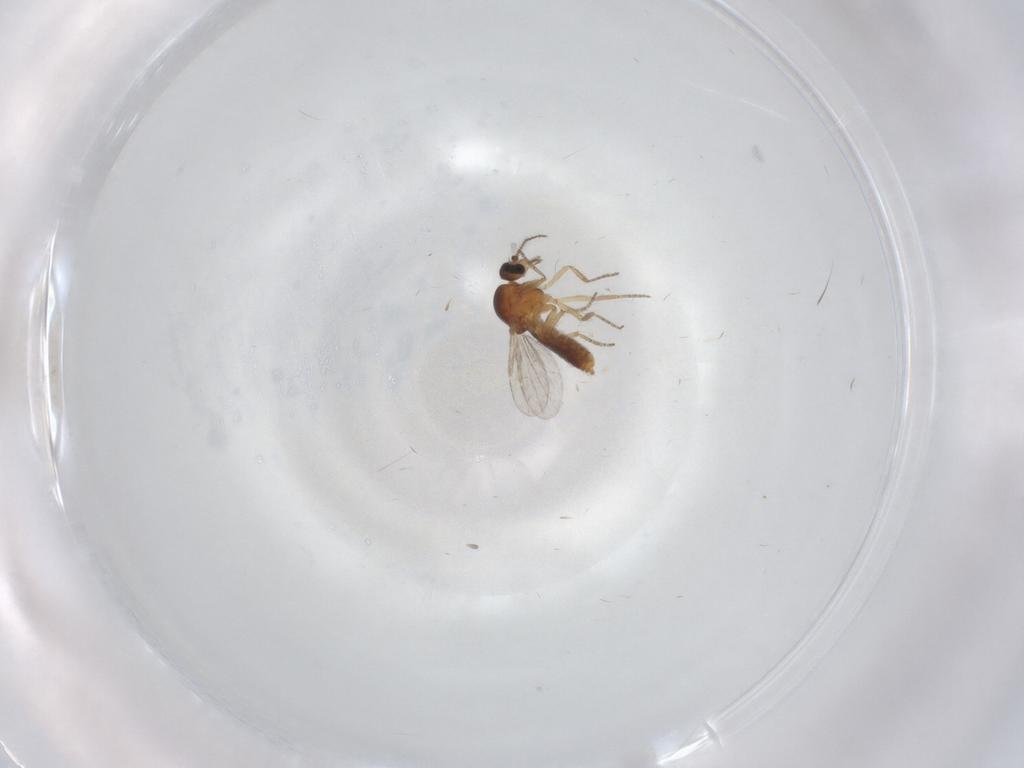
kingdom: Animalia
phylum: Arthropoda
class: Insecta
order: Diptera
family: Ceratopogonidae
